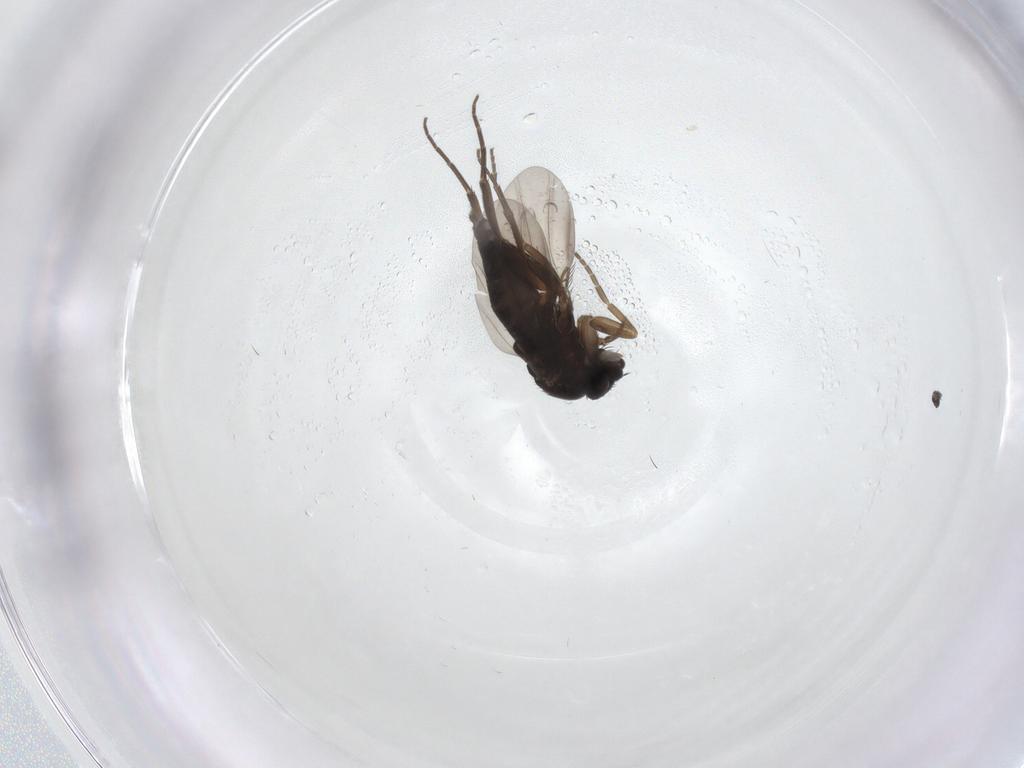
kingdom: Animalia
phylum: Arthropoda
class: Insecta
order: Diptera
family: Phoridae
